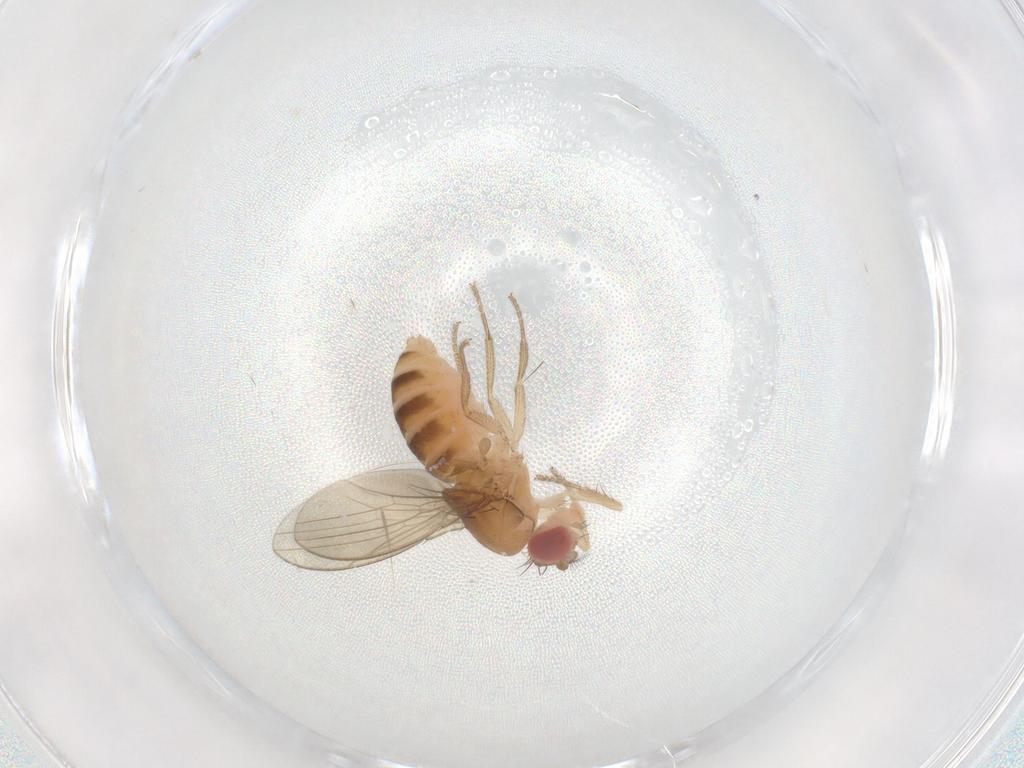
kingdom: Animalia
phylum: Arthropoda
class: Insecta
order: Diptera
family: Drosophilidae
